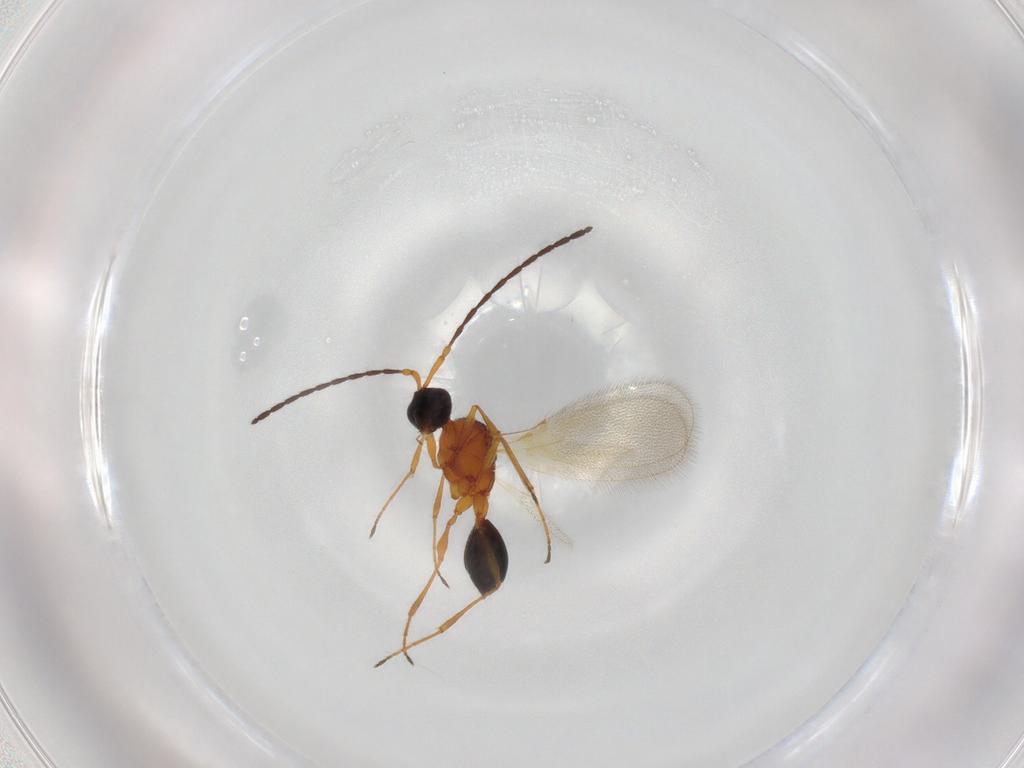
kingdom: Animalia
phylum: Arthropoda
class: Insecta
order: Hymenoptera
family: Diapriidae
